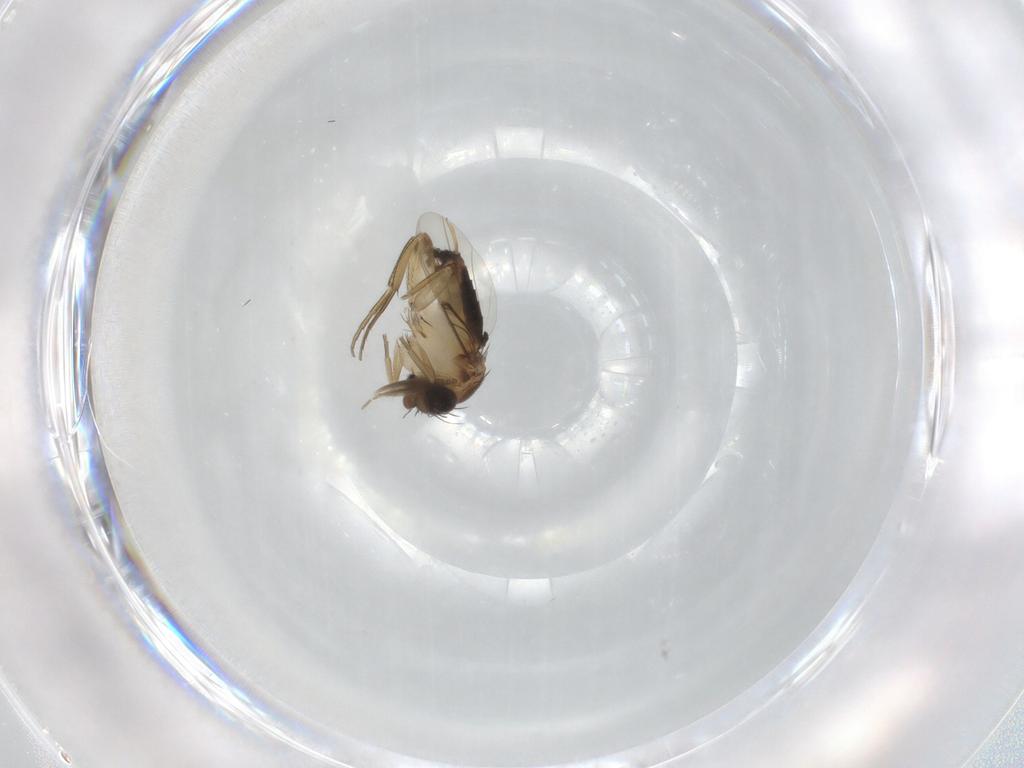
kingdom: Animalia
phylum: Arthropoda
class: Insecta
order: Diptera
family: Phoridae
